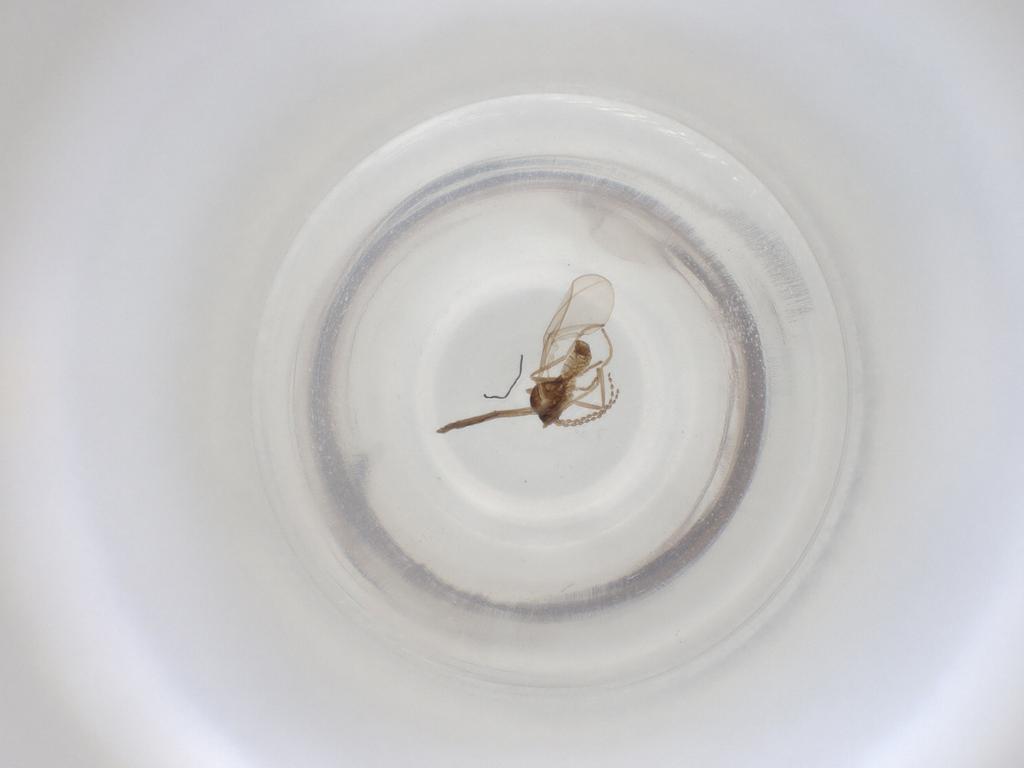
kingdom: Animalia
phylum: Arthropoda
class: Insecta
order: Diptera
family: Cecidomyiidae
